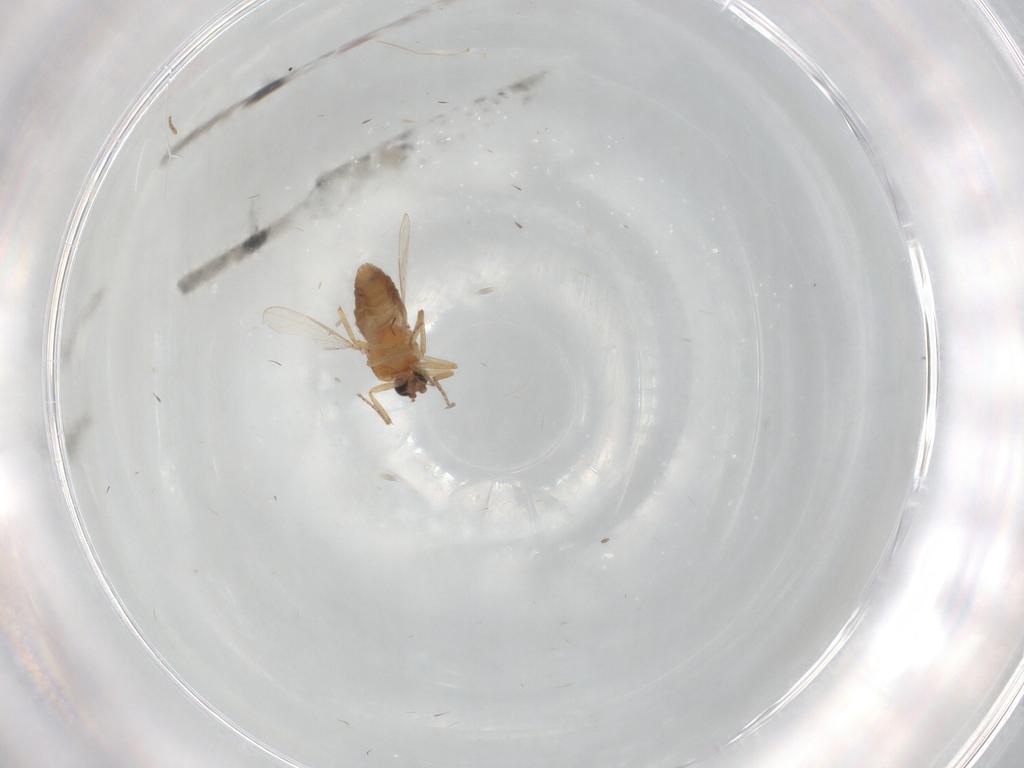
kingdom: Animalia
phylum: Arthropoda
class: Insecta
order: Diptera
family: Ceratopogonidae
